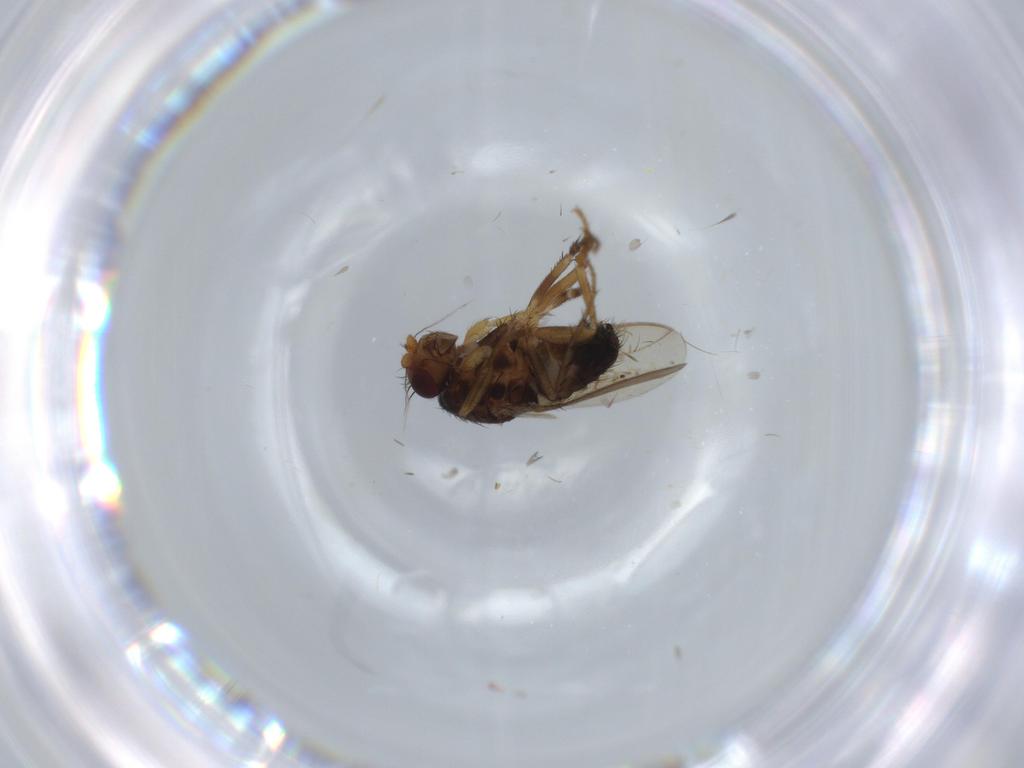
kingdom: Animalia
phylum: Arthropoda
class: Insecta
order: Diptera
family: Sphaeroceridae
